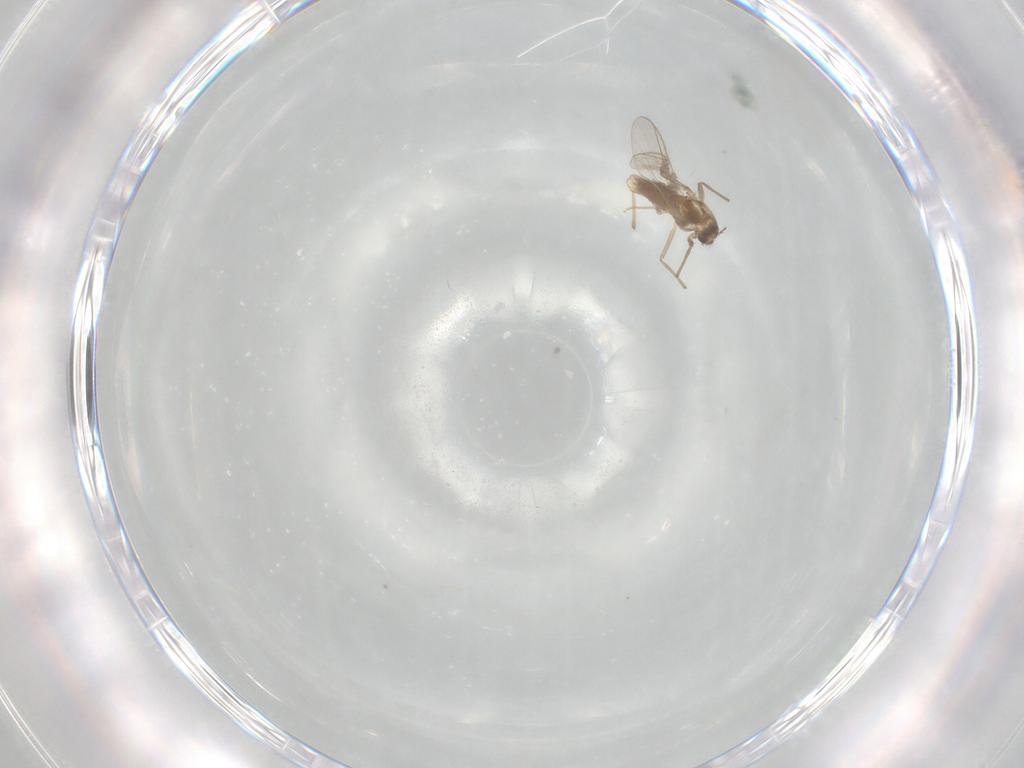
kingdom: Animalia
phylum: Arthropoda
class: Insecta
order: Diptera
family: Chironomidae
